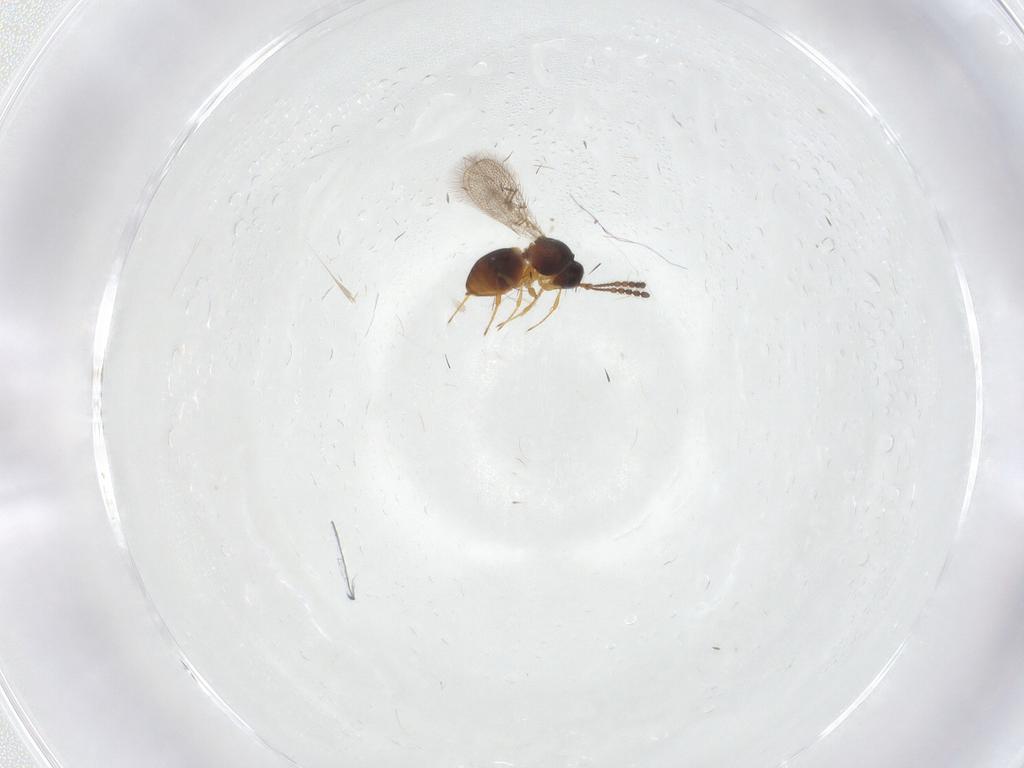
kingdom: Animalia
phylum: Arthropoda
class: Insecta
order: Hymenoptera
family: Figitidae
